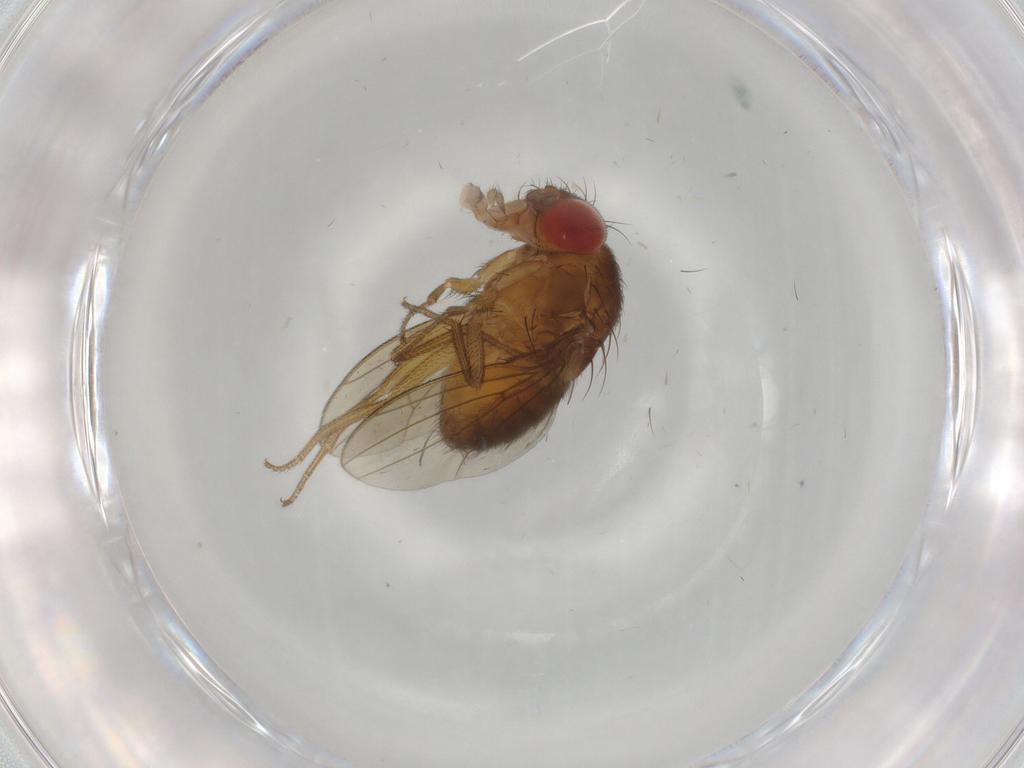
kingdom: Animalia
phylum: Arthropoda
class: Insecta
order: Diptera
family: Drosophilidae
